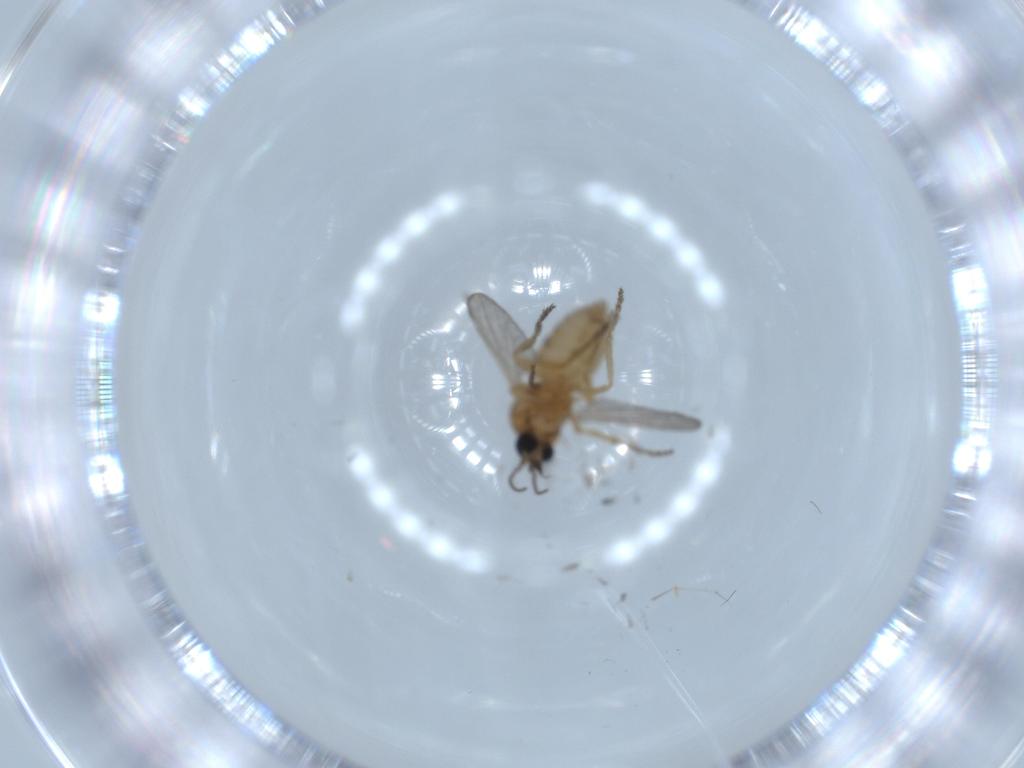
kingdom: Animalia
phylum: Arthropoda
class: Insecta
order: Diptera
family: Ceratopogonidae
